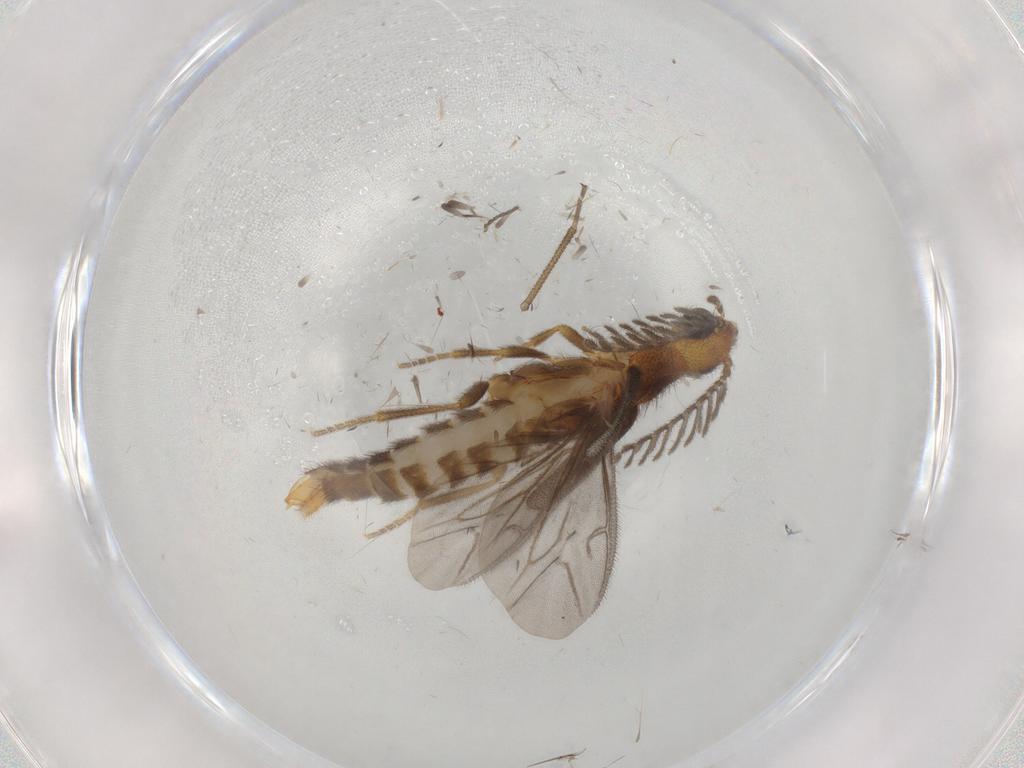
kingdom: Animalia
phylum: Arthropoda
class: Insecta
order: Coleoptera
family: Phengodidae
